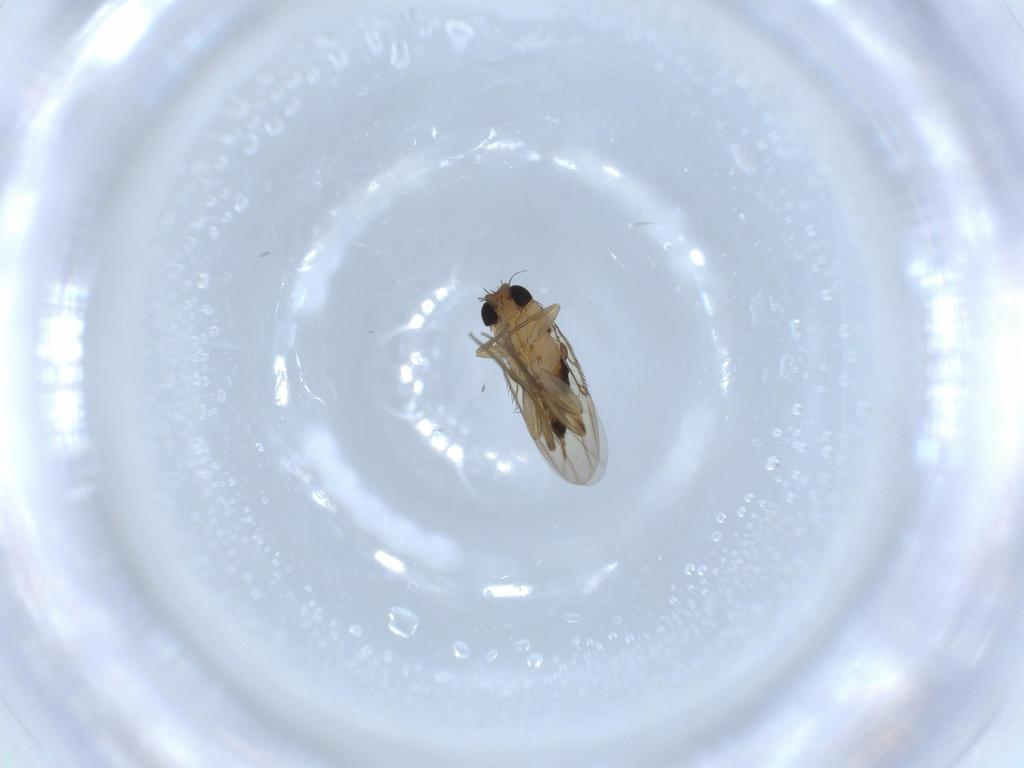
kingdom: Animalia
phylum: Arthropoda
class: Insecta
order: Diptera
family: Phoridae
